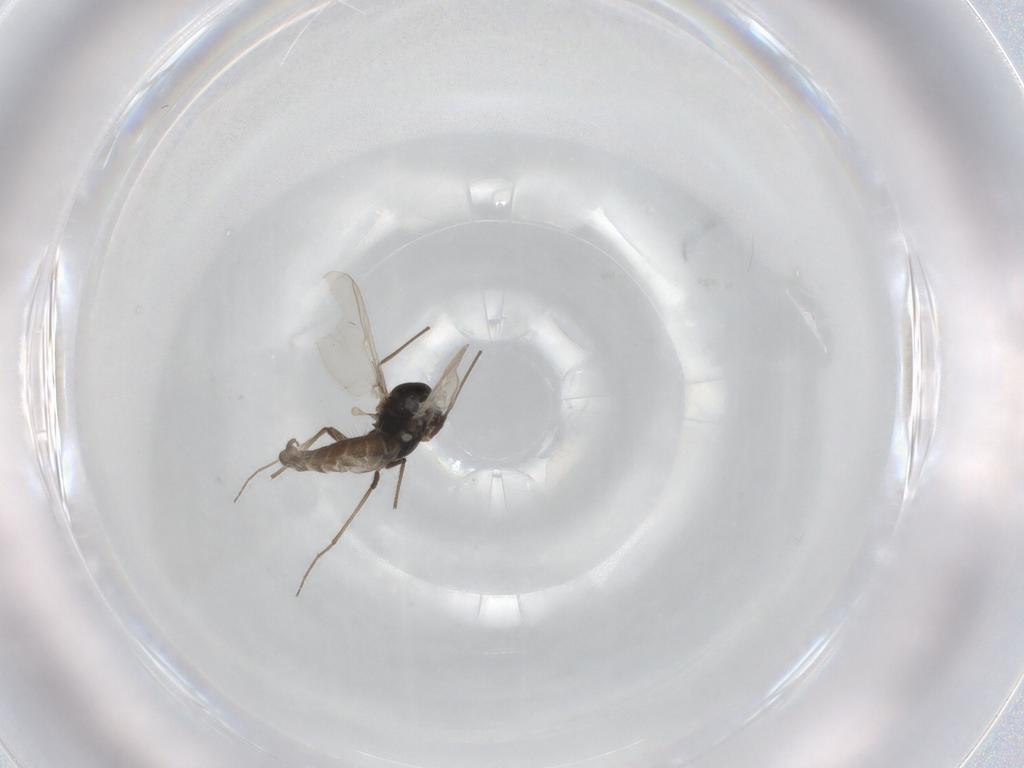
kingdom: Animalia
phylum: Arthropoda
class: Insecta
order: Diptera
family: Chironomidae
